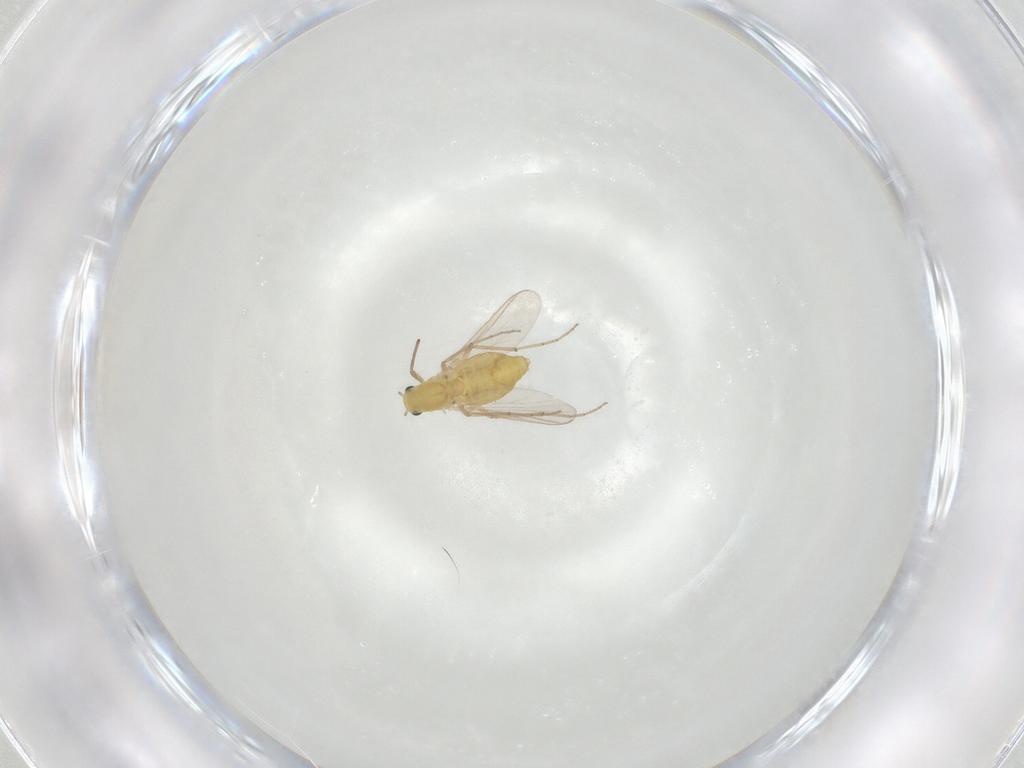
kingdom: Animalia
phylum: Arthropoda
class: Insecta
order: Diptera
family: Chironomidae
